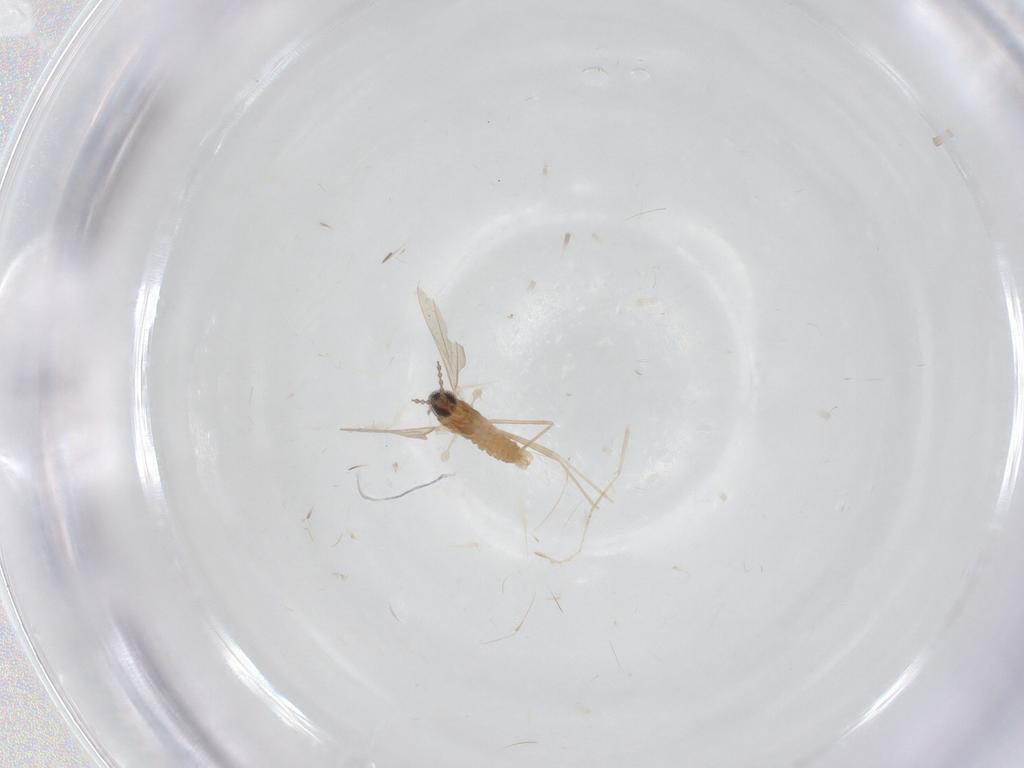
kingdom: Animalia
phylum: Arthropoda
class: Insecta
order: Diptera
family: Cecidomyiidae
